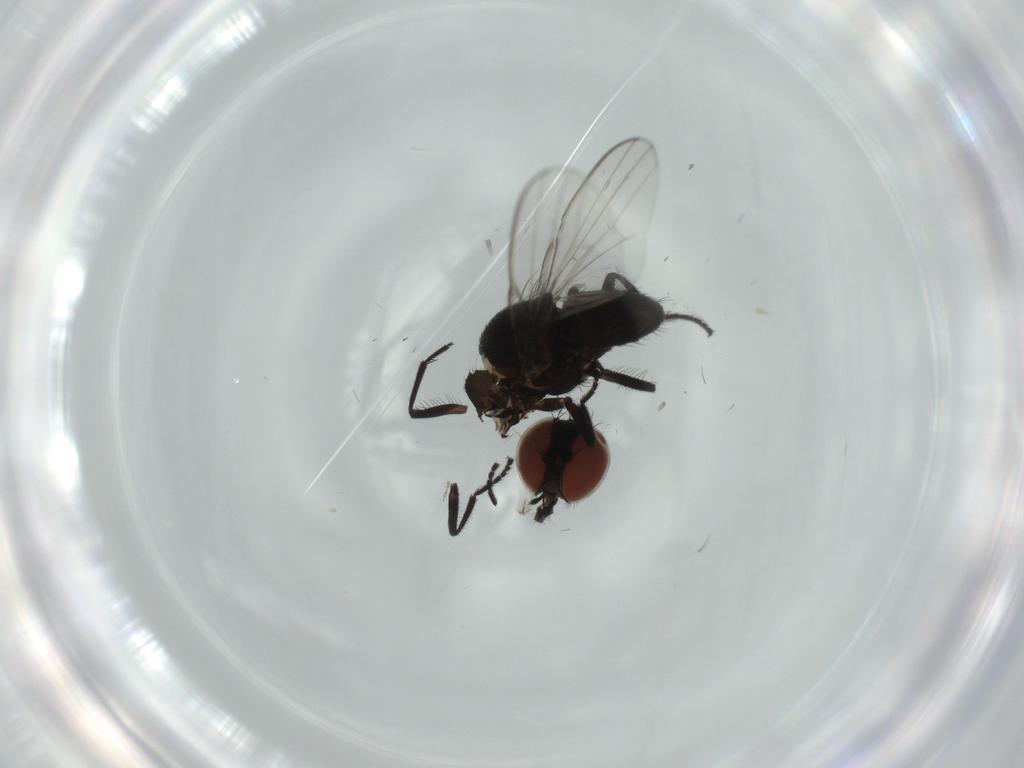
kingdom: Animalia
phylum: Arthropoda
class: Insecta
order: Diptera
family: Milichiidae
